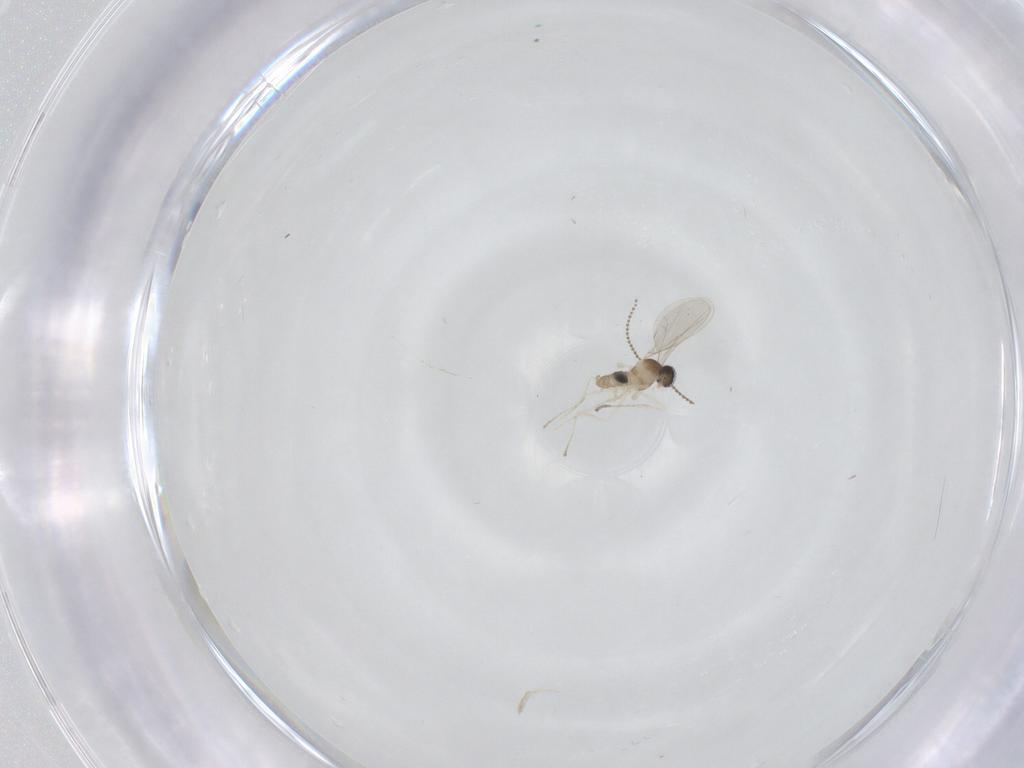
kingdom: Animalia
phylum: Arthropoda
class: Insecta
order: Diptera
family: Cecidomyiidae
